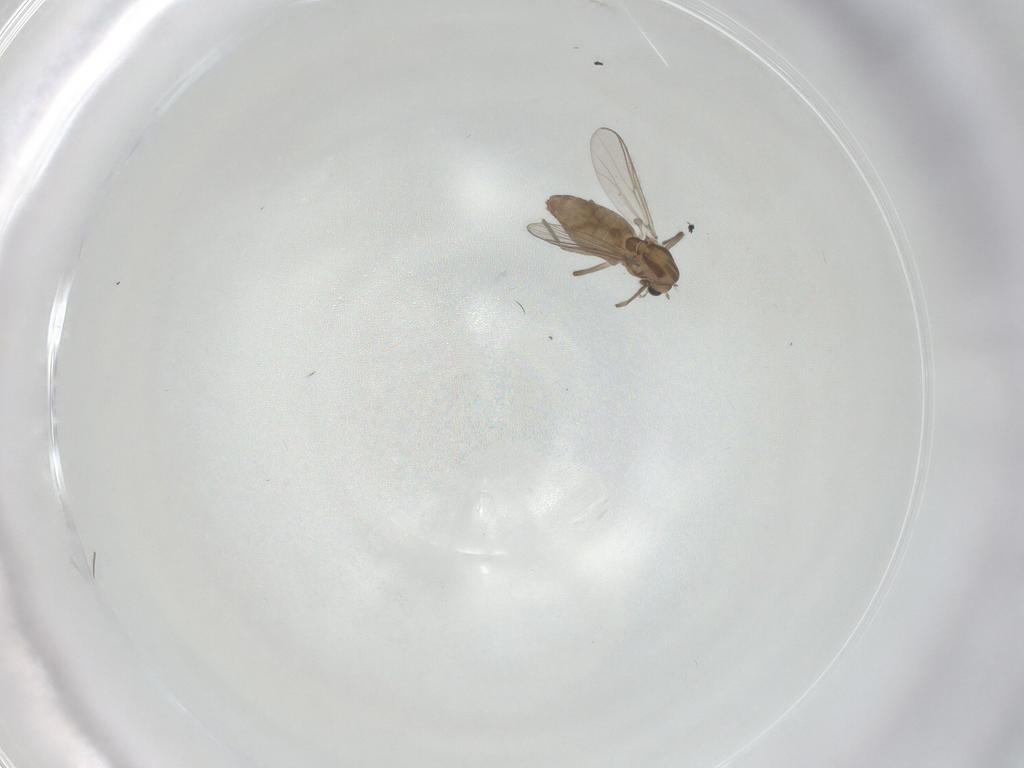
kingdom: Animalia
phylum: Arthropoda
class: Insecta
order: Diptera
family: Chironomidae
